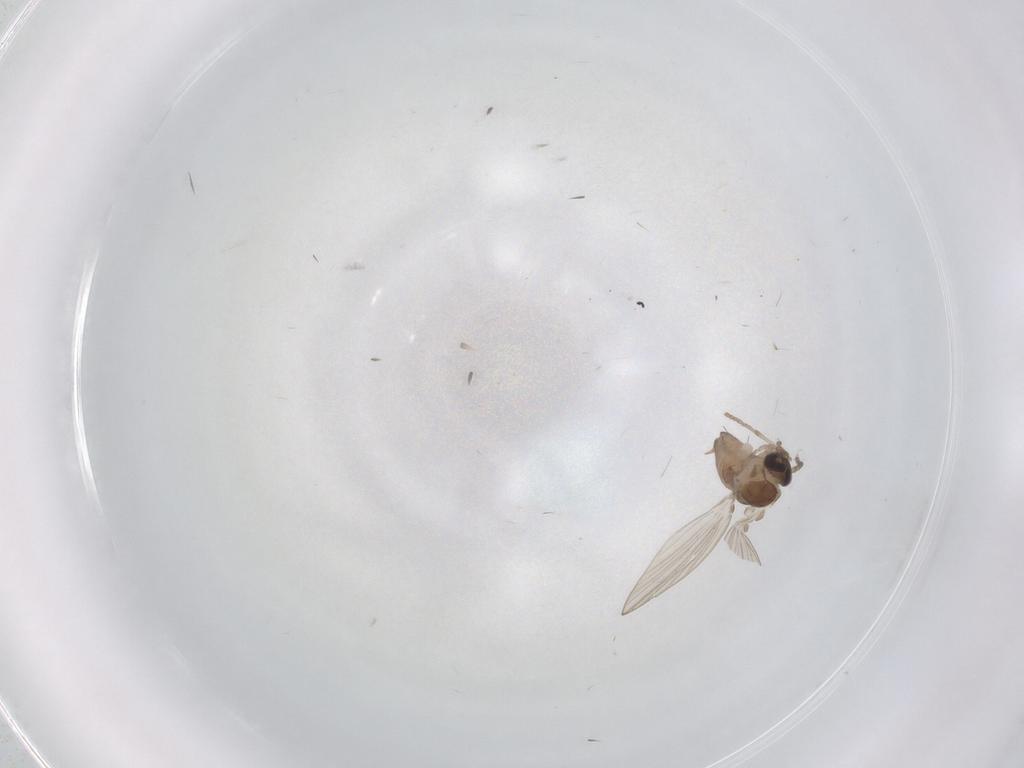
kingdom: Animalia
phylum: Arthropoda
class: Insecta
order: Diptera
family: Psychodidae
